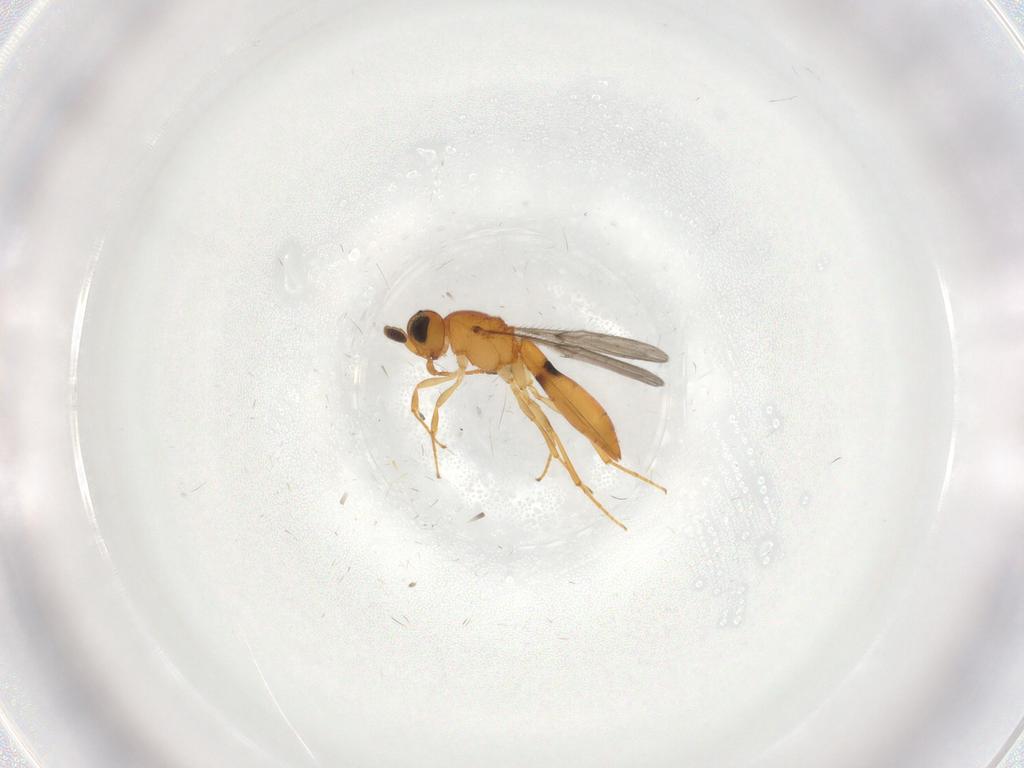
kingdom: Animalia
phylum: Arthropoda
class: Insecta
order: Hymenoptera
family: Scelionidae
